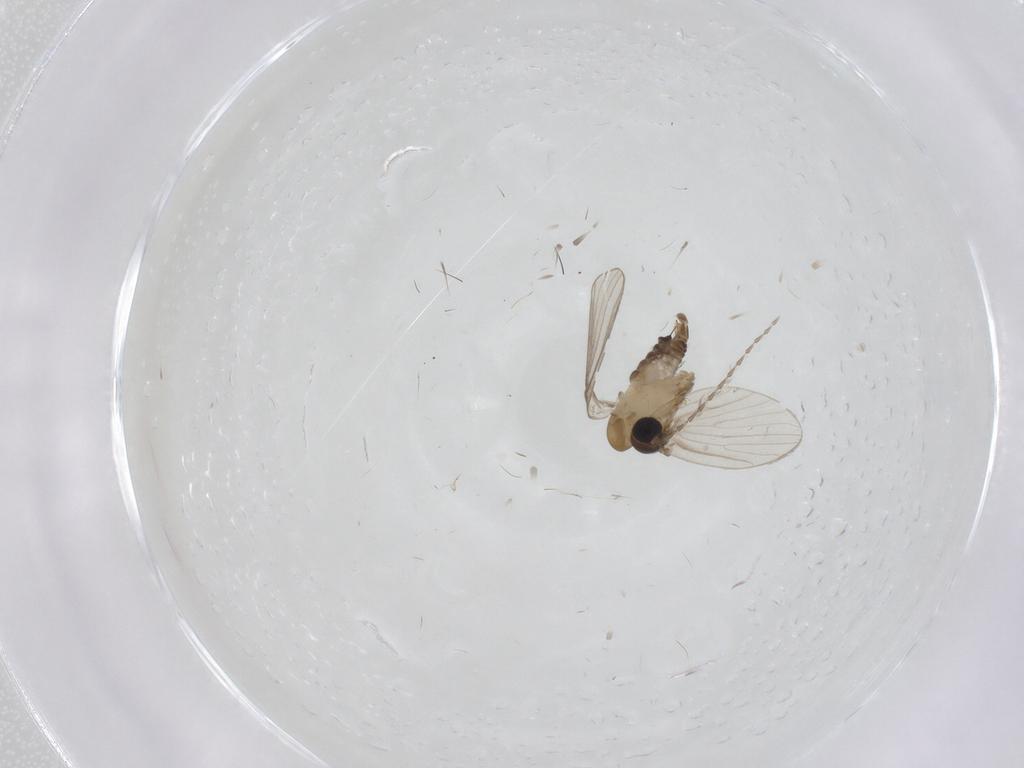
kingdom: Animalia
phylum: Arthropoda
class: Insecta
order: Diptera
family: Psychodidae
